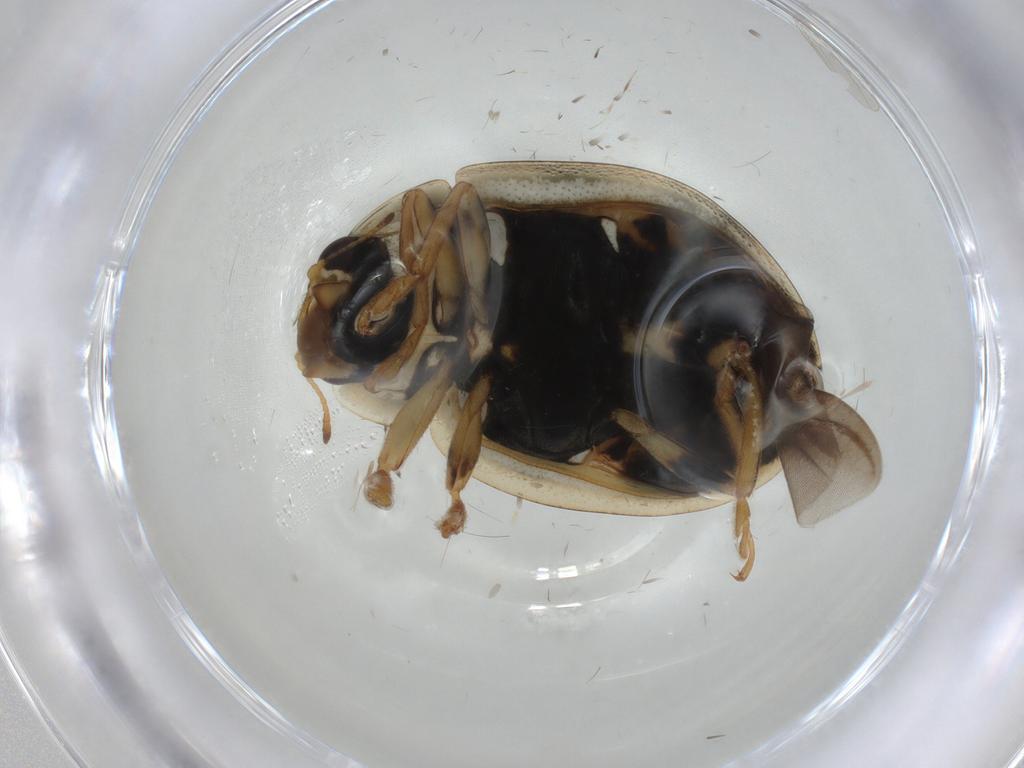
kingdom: Animalia
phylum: Arthropoda
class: Insecta
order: Coleoptera
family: Coccinellidae
